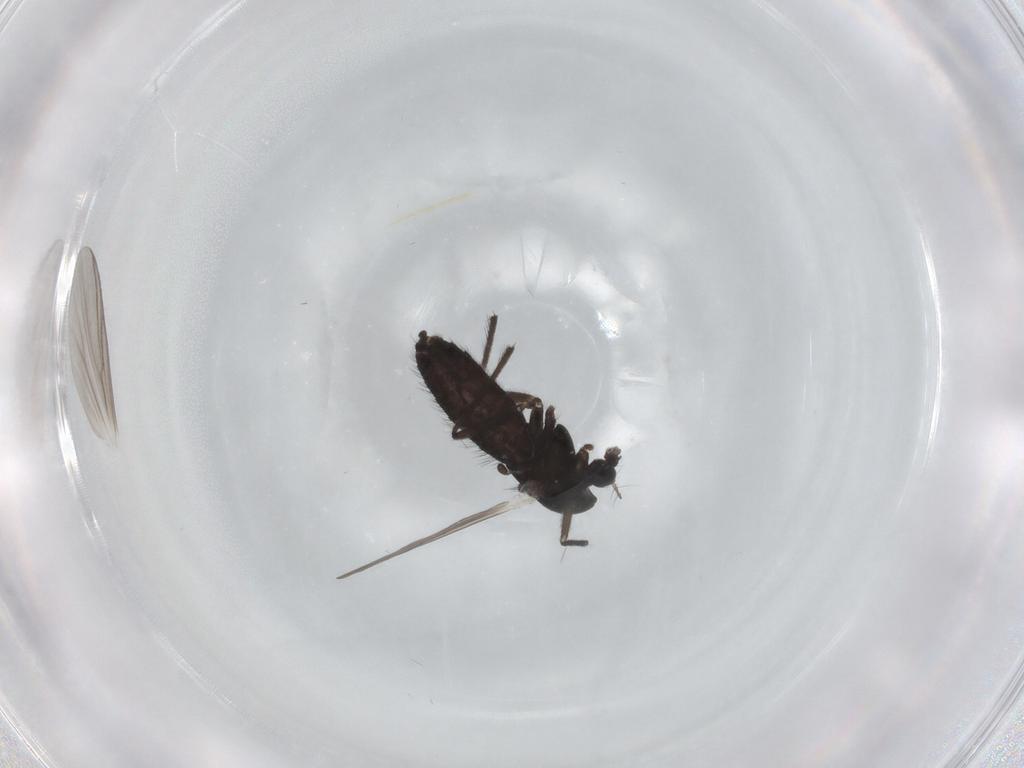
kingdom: Animalia
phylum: Arthropoda
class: Insecta
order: Diptera
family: Chironomidae
